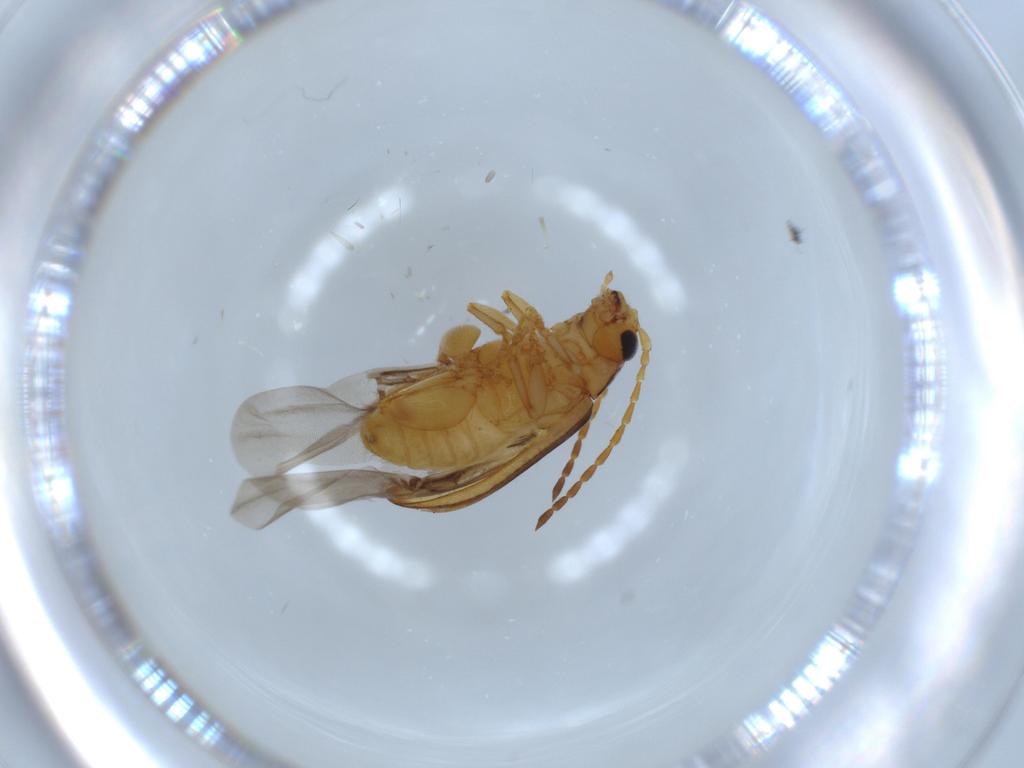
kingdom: Animalia
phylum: Arthropoda
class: Insecta
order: Coleoptera
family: Chrysomelidae
